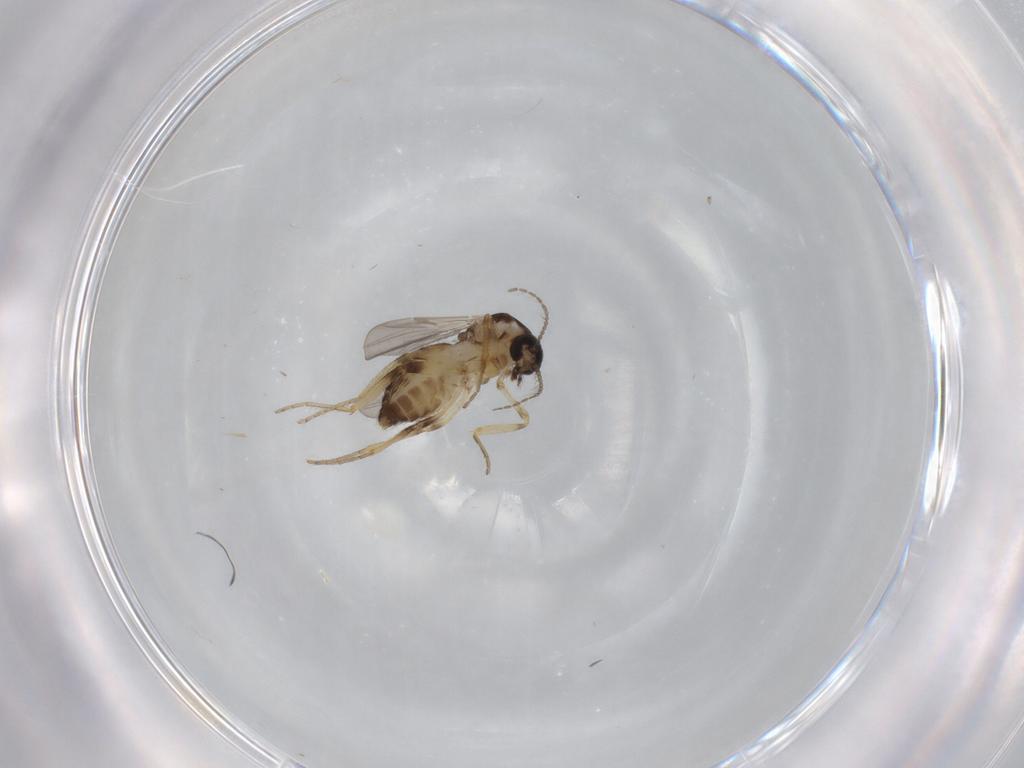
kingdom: Animalia
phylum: Arthropoda
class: Insecta
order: Diptera
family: Ceratopogonidae
